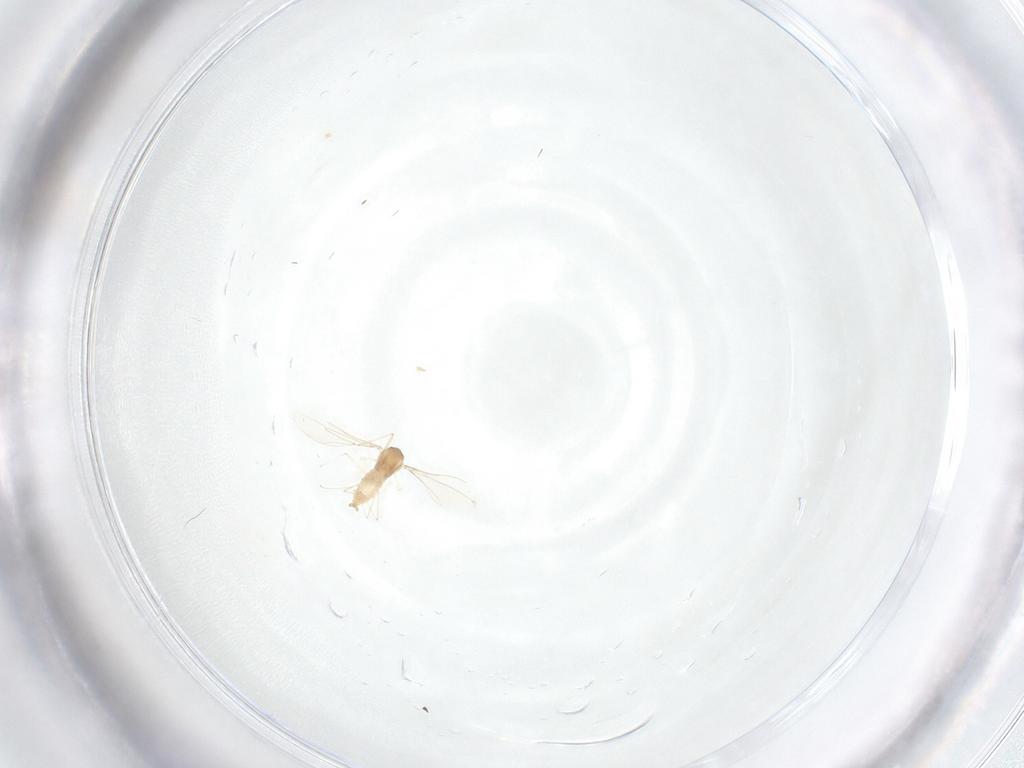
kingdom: Animalia
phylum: Arthropoda
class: Insecta
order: Diptera
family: Cecidomyiidae
